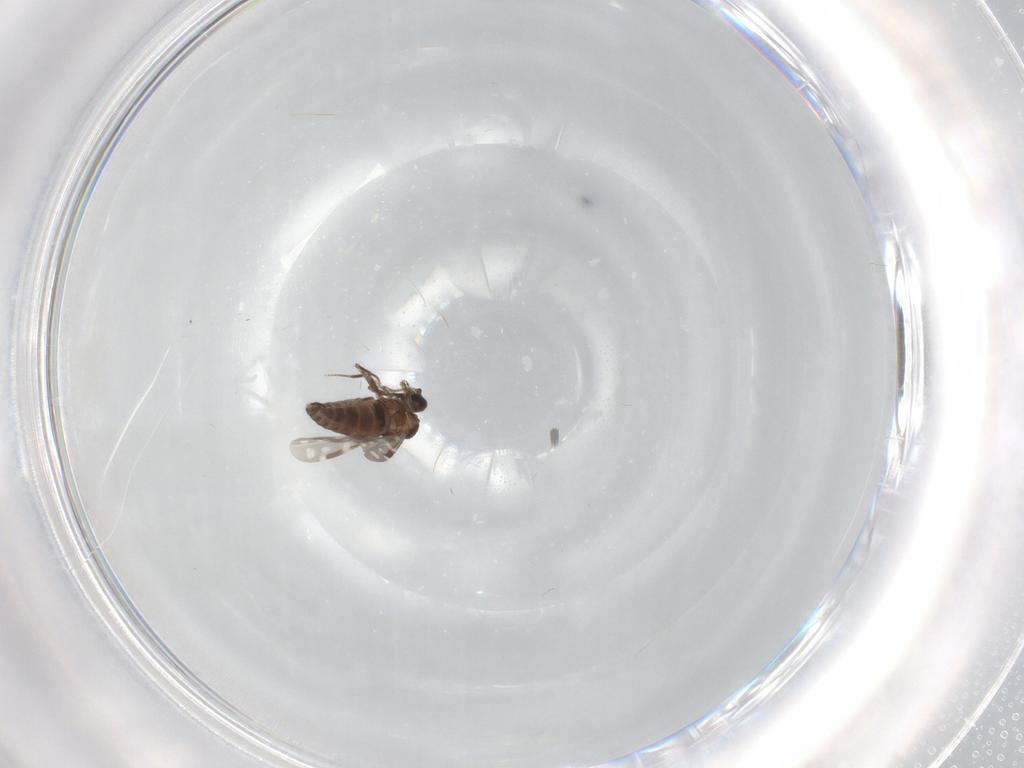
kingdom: Animalia
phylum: Arthropoda
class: Insecta
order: Diptera
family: Ceratopogonidae
